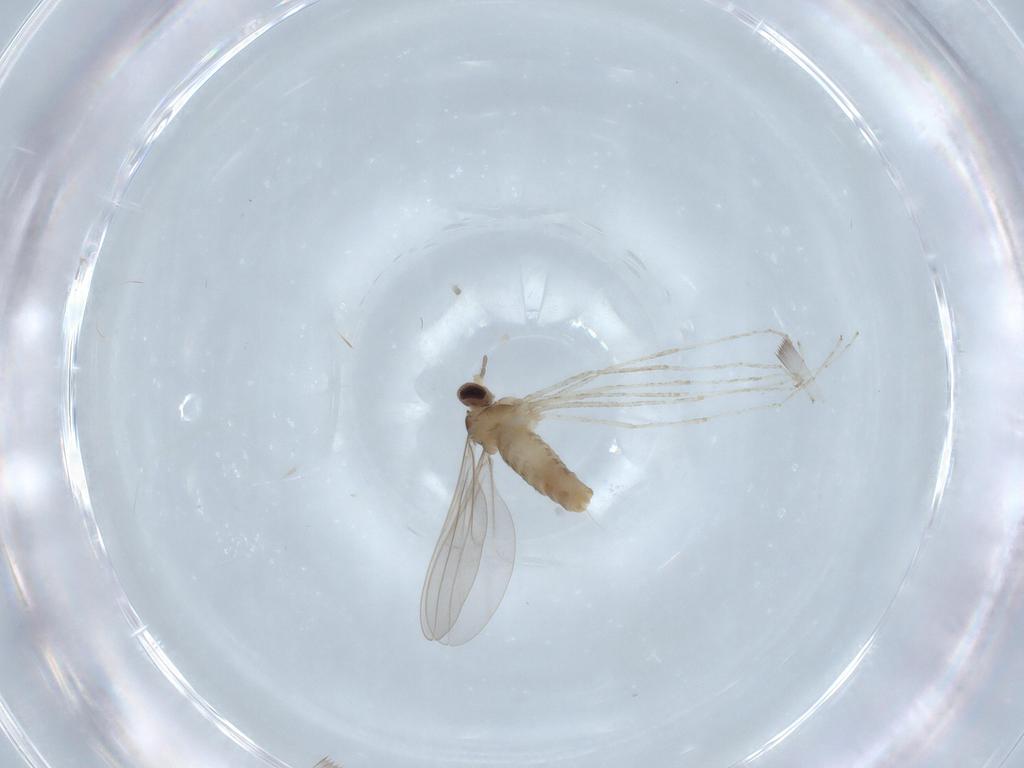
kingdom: Animalia
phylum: Arthropoda
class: Insecta
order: Diptera
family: Cecidomyiidae
